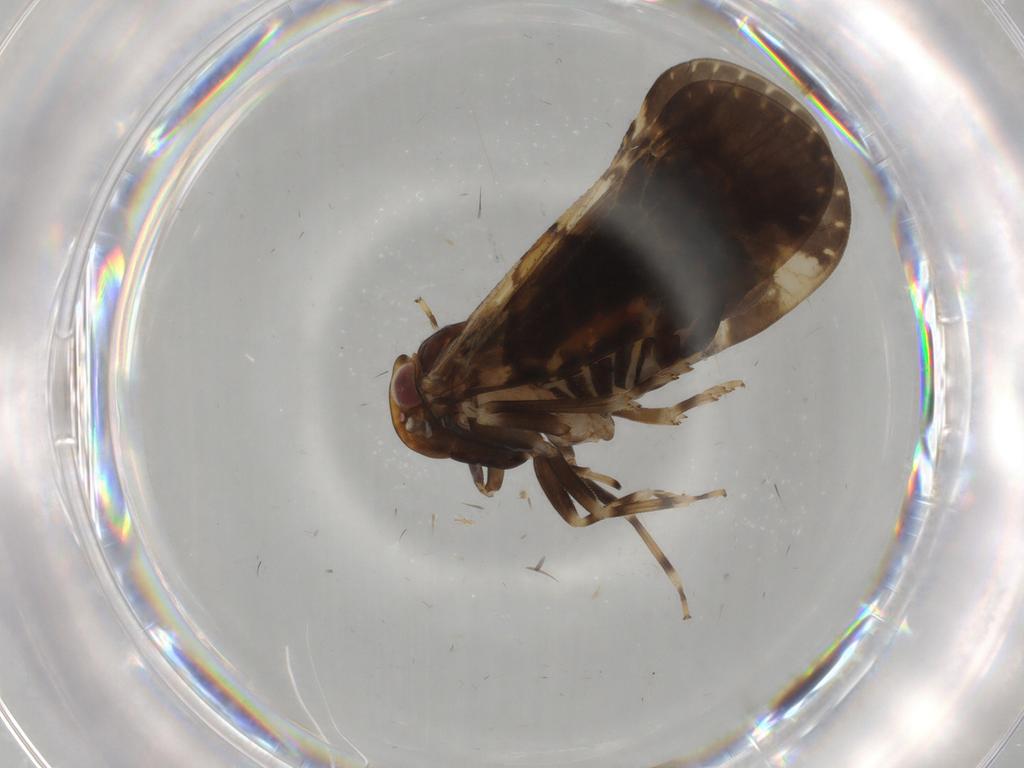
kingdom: Animalia
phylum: Arthropoda
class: Insecta
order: Hemiptera
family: Cixiidae
